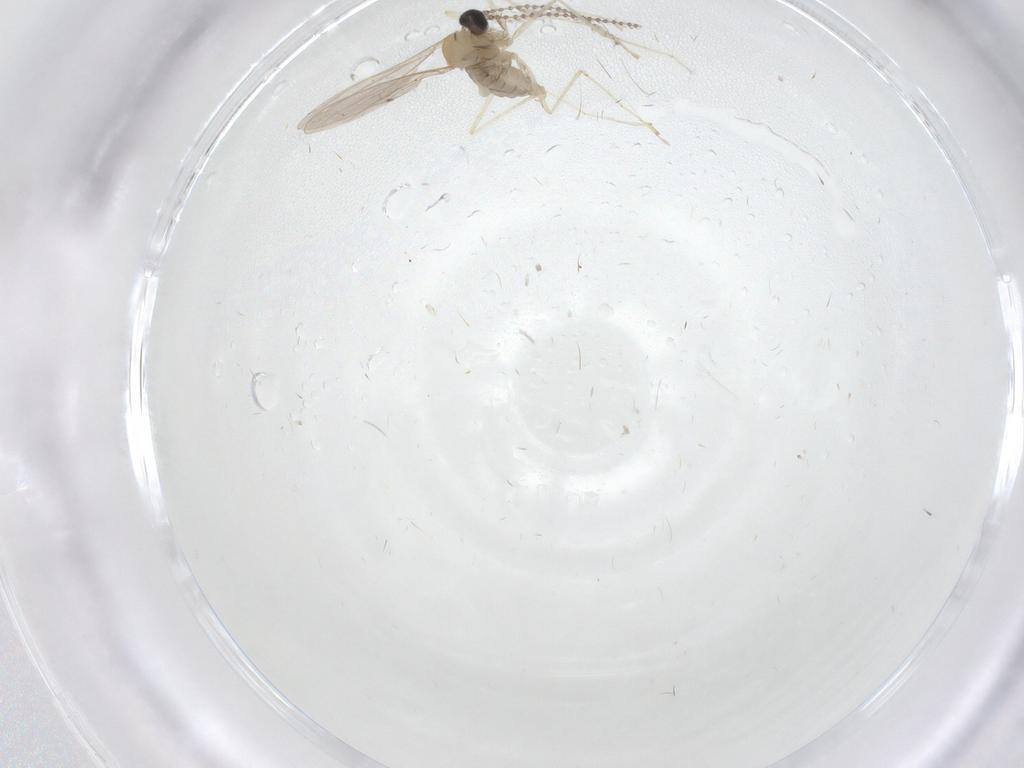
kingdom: Animalia
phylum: Arthropoda
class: Insecta
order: Diptera
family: Cecidomyiidae
